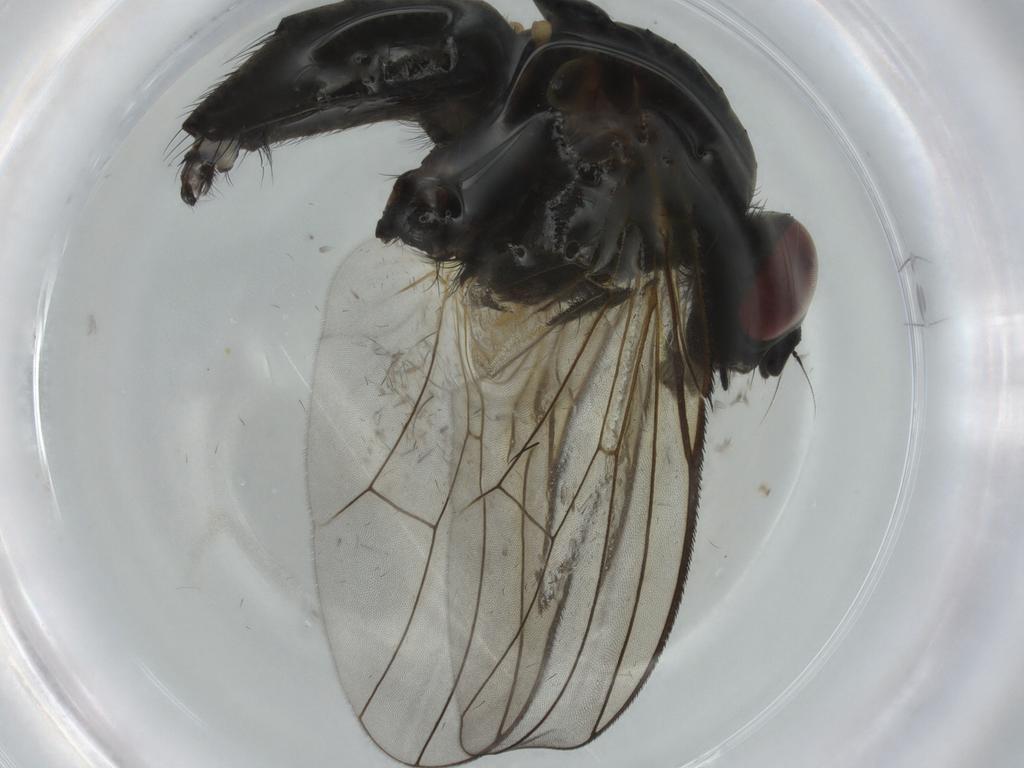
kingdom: Animalia
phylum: Arthropoda
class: Insecta
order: Diptera
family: Muscidae
